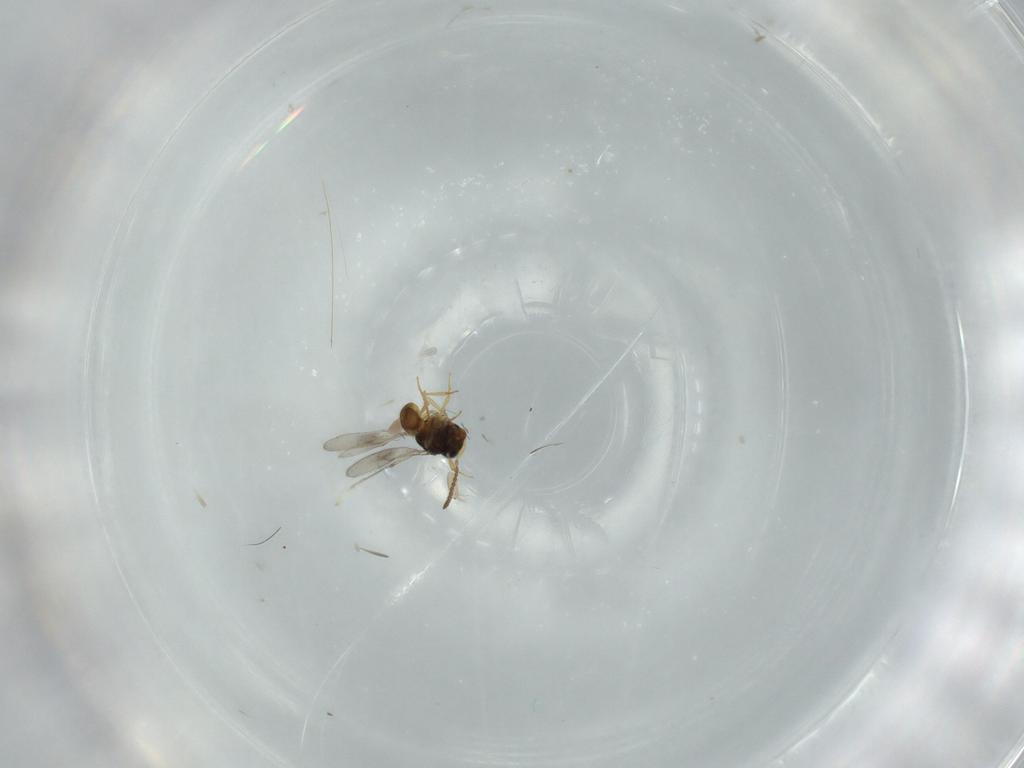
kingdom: Animalia
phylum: Arthropoda
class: Insecta
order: Hymenoptera
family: Scelionidae
